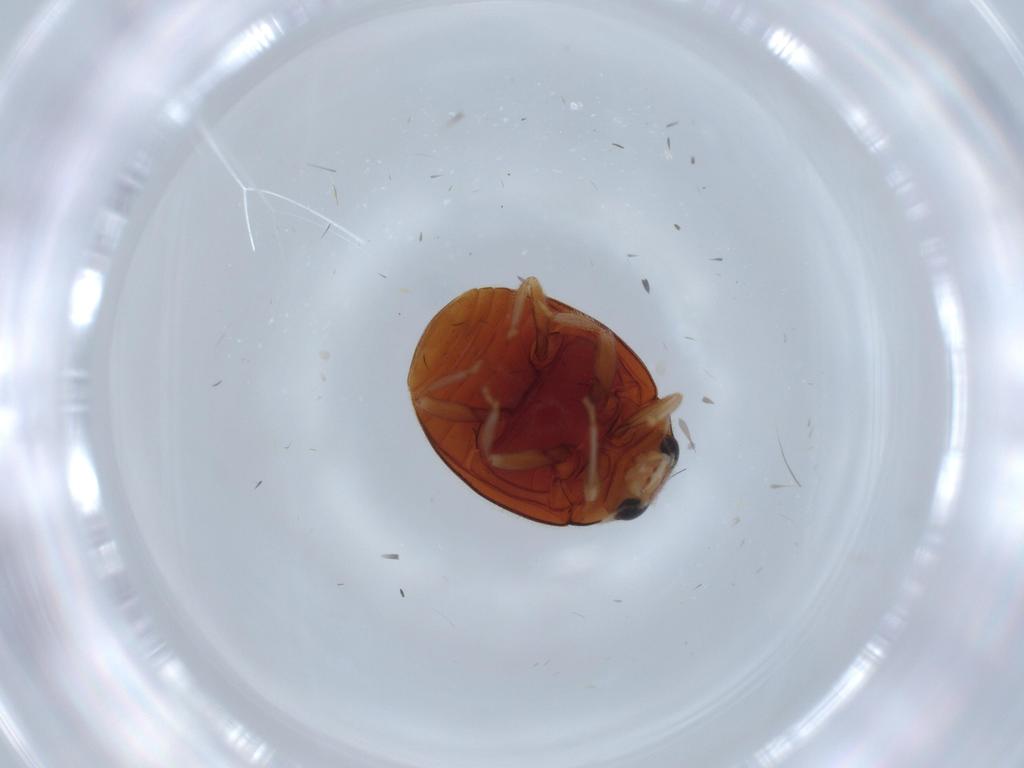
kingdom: Animalia
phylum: Arthropoda
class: Insecta
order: Coleoptera
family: Coccinellidae
